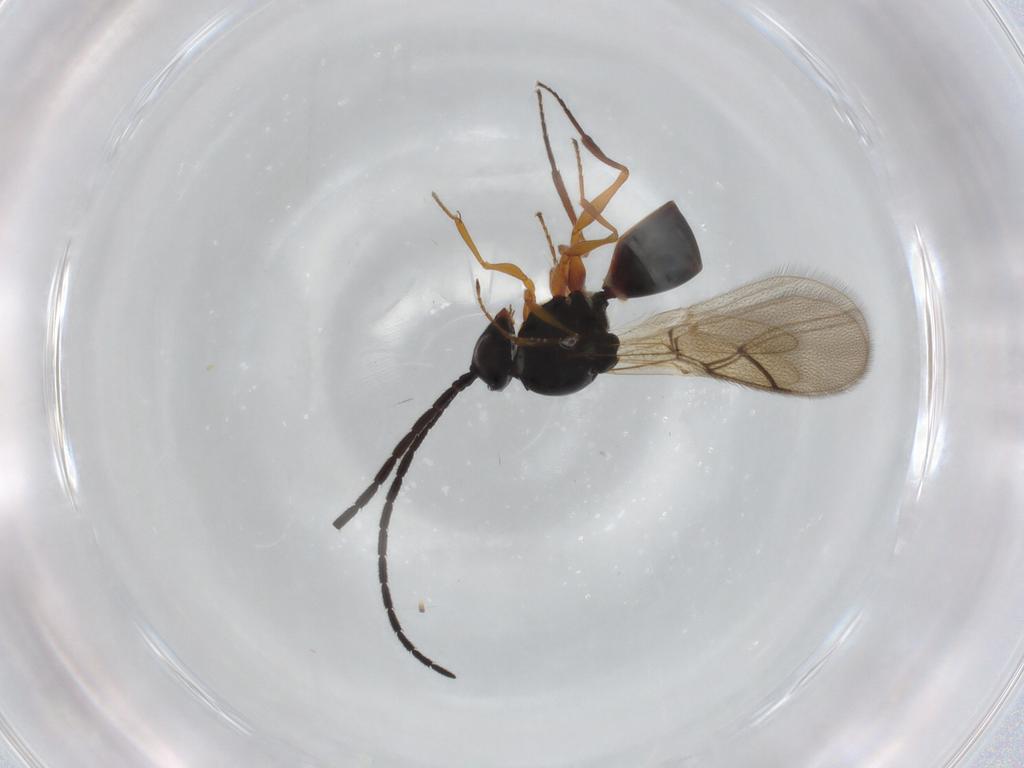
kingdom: Animalia
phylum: Arthropoda
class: Insecta
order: Hymenoptera
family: Figitidae
